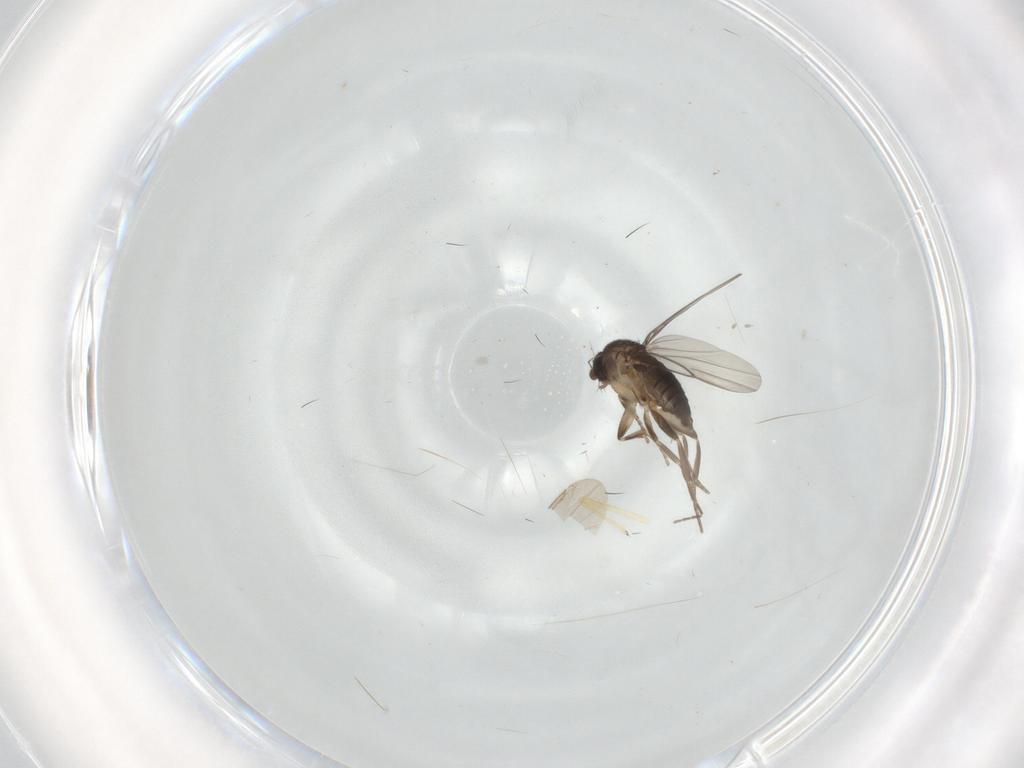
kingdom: Animalia
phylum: Arthropoda
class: Insecta
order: Diptera
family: Chironomidae
